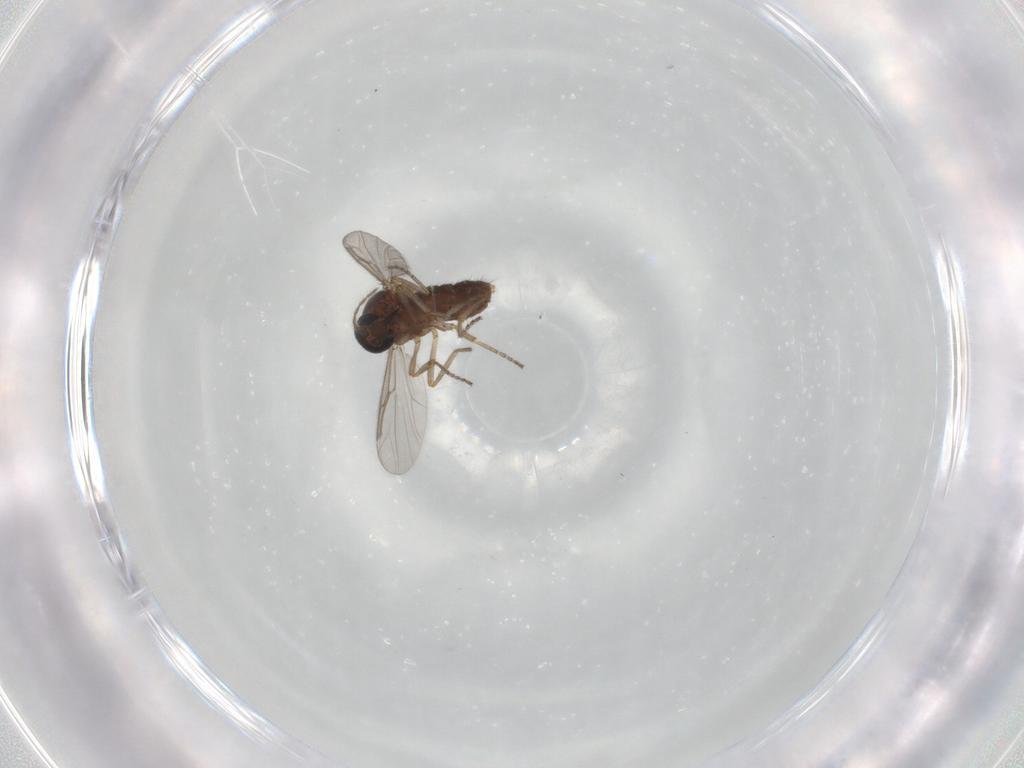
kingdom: Animalia
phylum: Arthropoda
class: Insecta
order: Diptera
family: Ceratopogonidae
